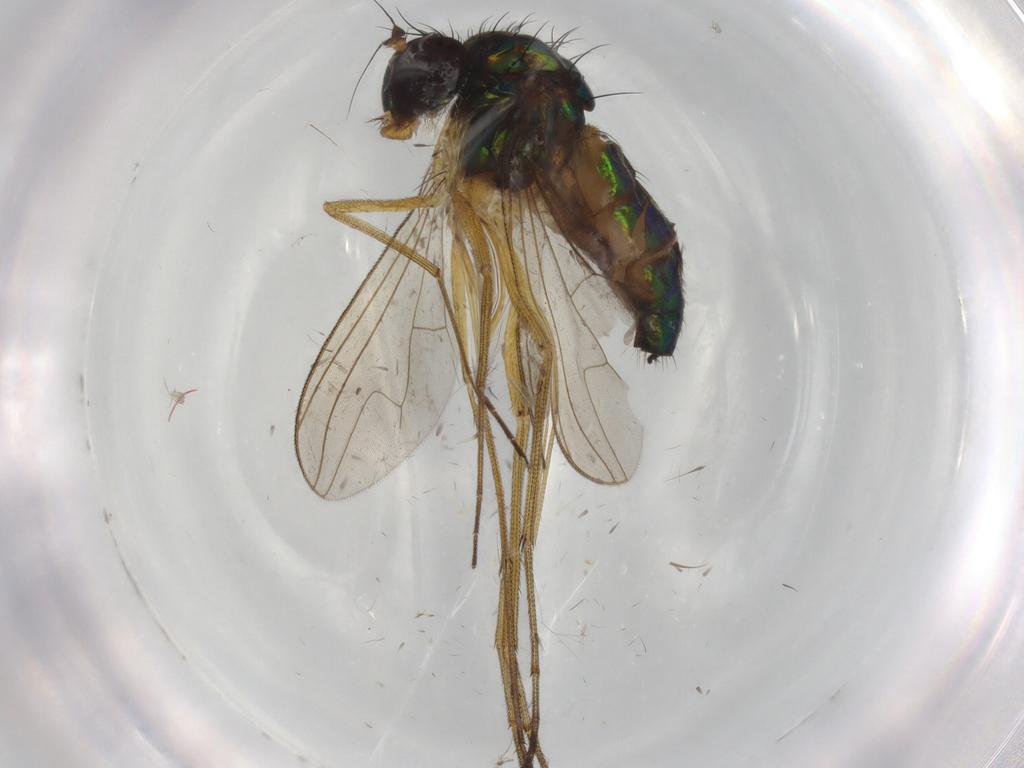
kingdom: Animalia
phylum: Arthropoda
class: Insecta
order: Diptera
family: Dolichopodidae
